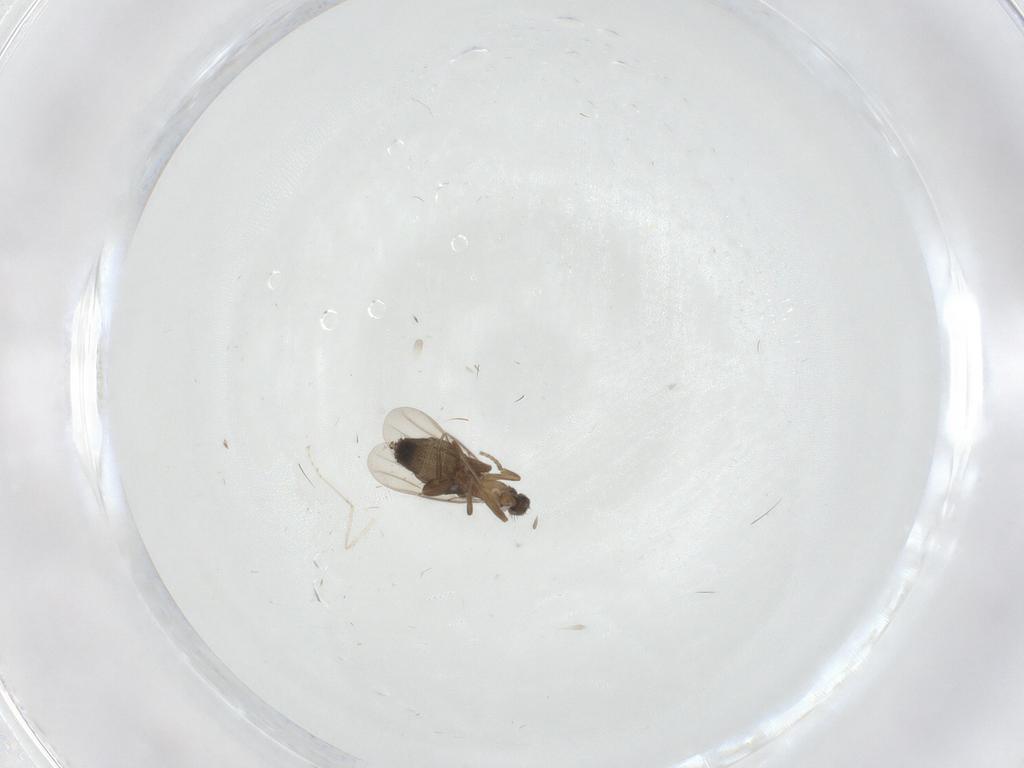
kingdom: Animalia
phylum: Arthropoda
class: Insecta
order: Diptera
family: Phoridae
